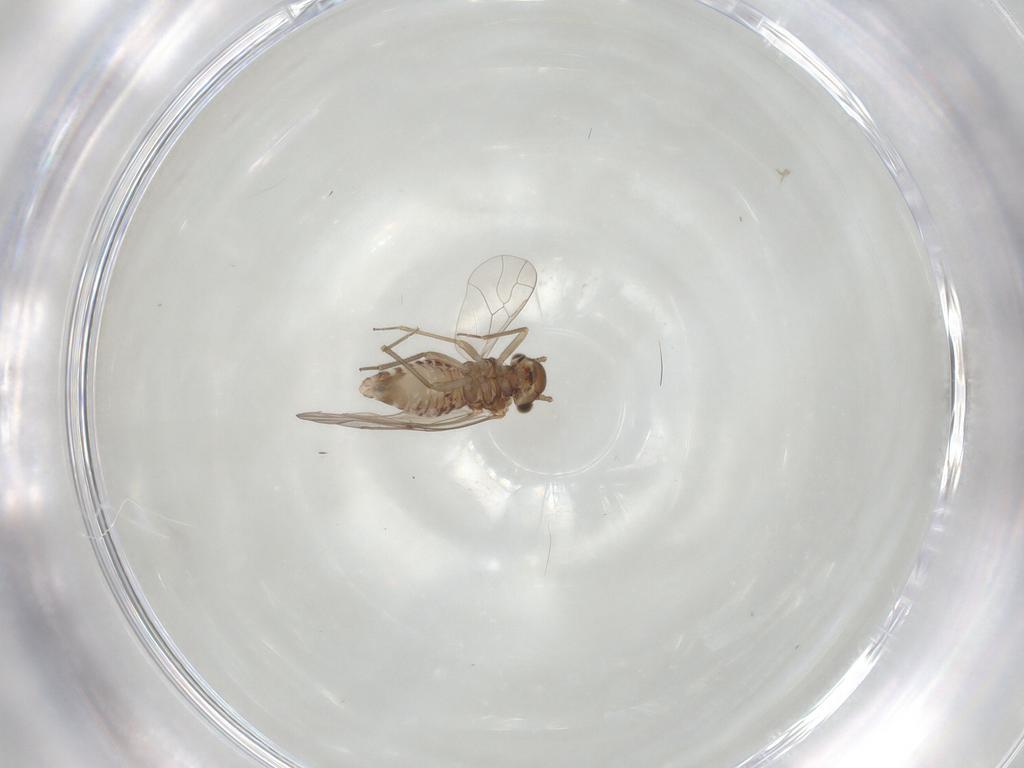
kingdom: Animalia
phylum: Arthropoda
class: Insecta
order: Psocodea
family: Lachesillidae
